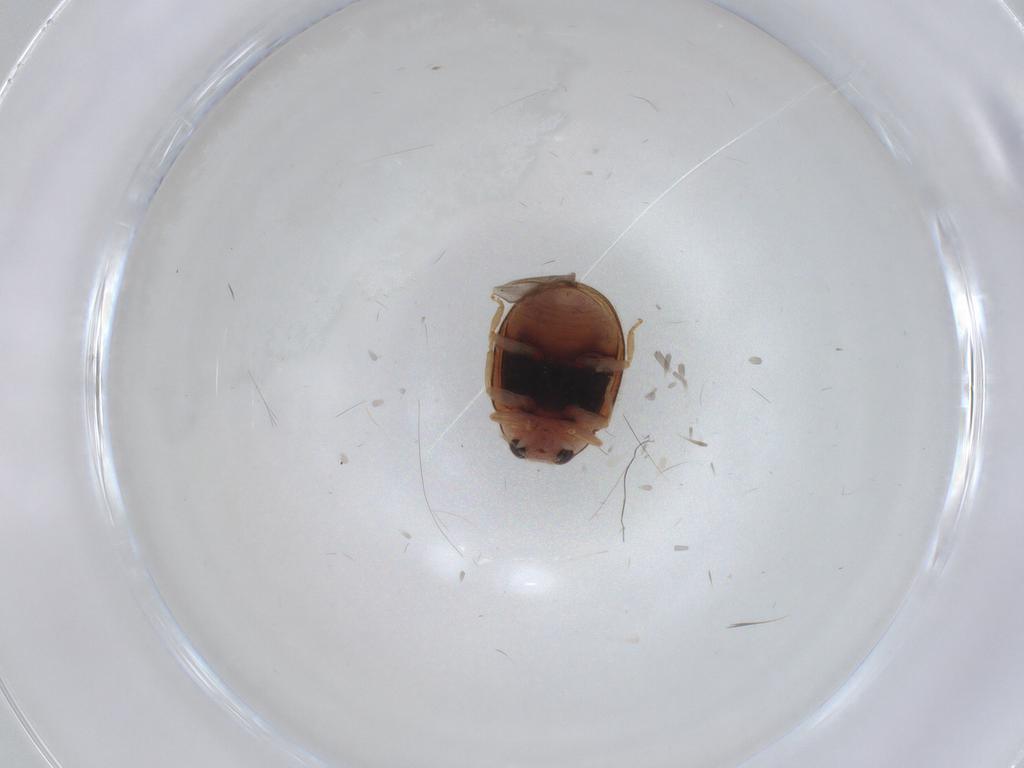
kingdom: Animalia
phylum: Arthropoda
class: Insecta
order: Coleoptera
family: Coccinellidae
